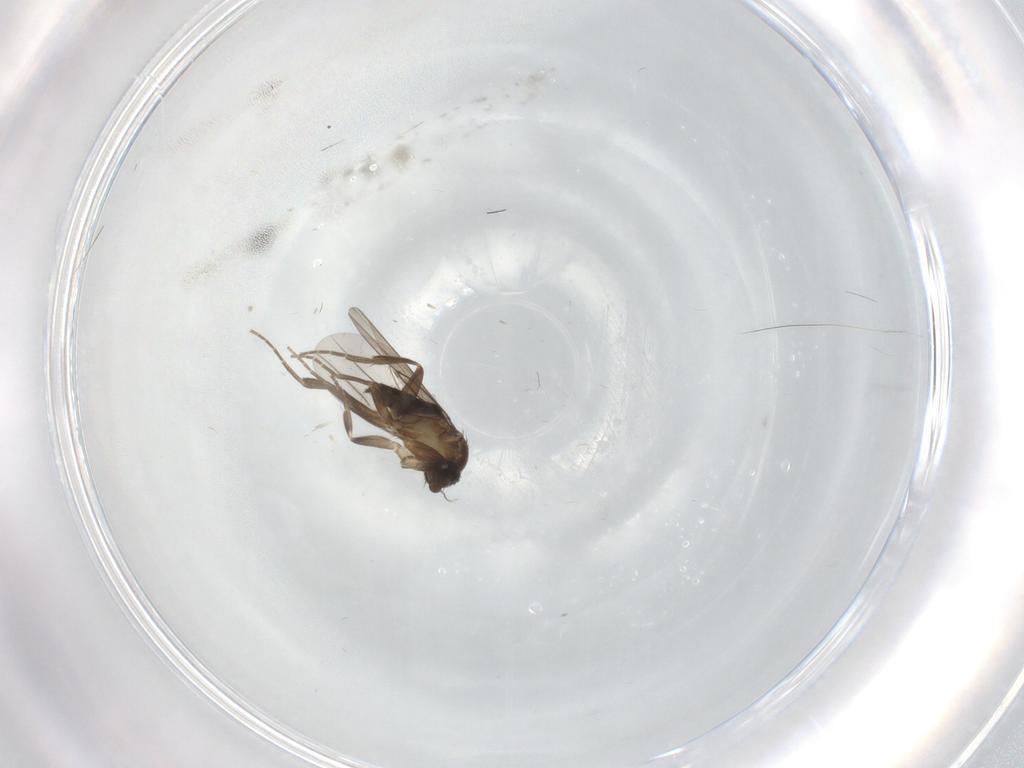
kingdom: Animalia
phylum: Arthropoda
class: Insecta
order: Diptera
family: Phoridae
